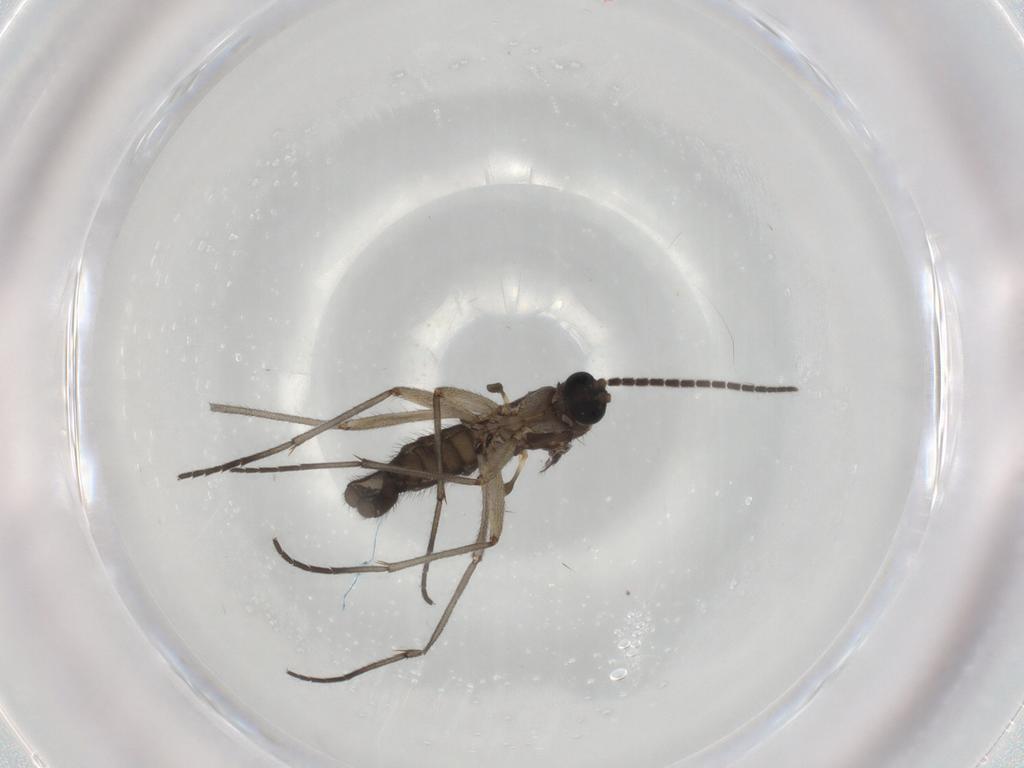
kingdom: Animalia
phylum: Arthropoda
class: Insecta
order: Diptera
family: Sciaridae
